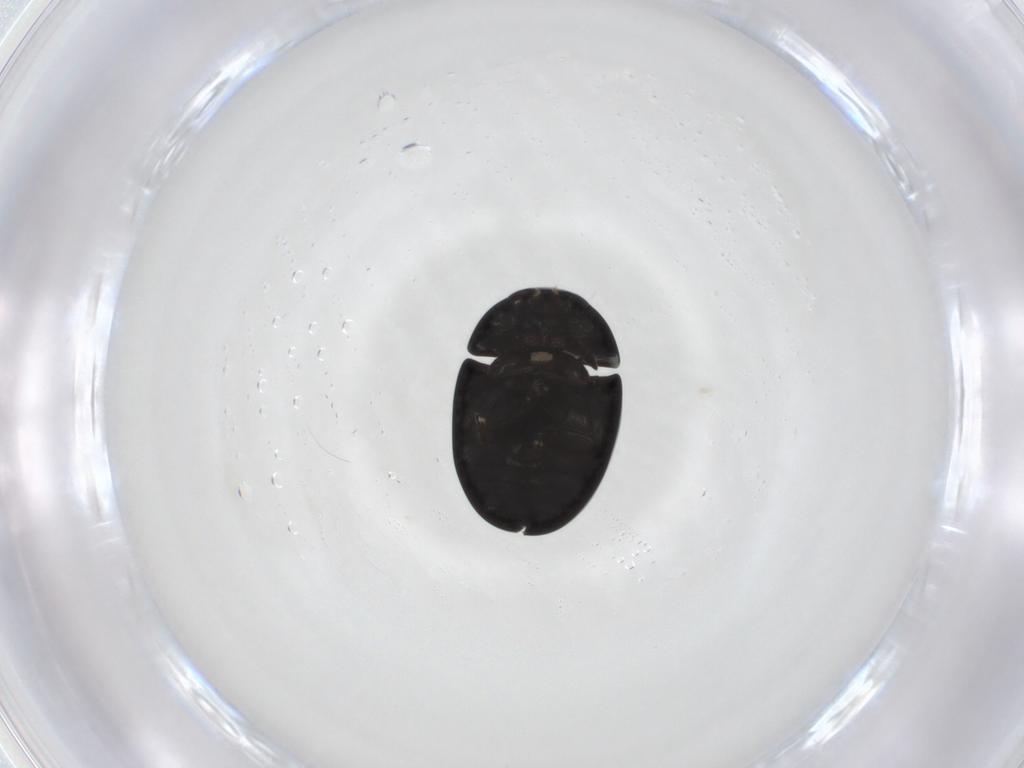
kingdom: Animalia
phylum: Arthropoda
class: Insecta
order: Coleoptera
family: Phalacridae
